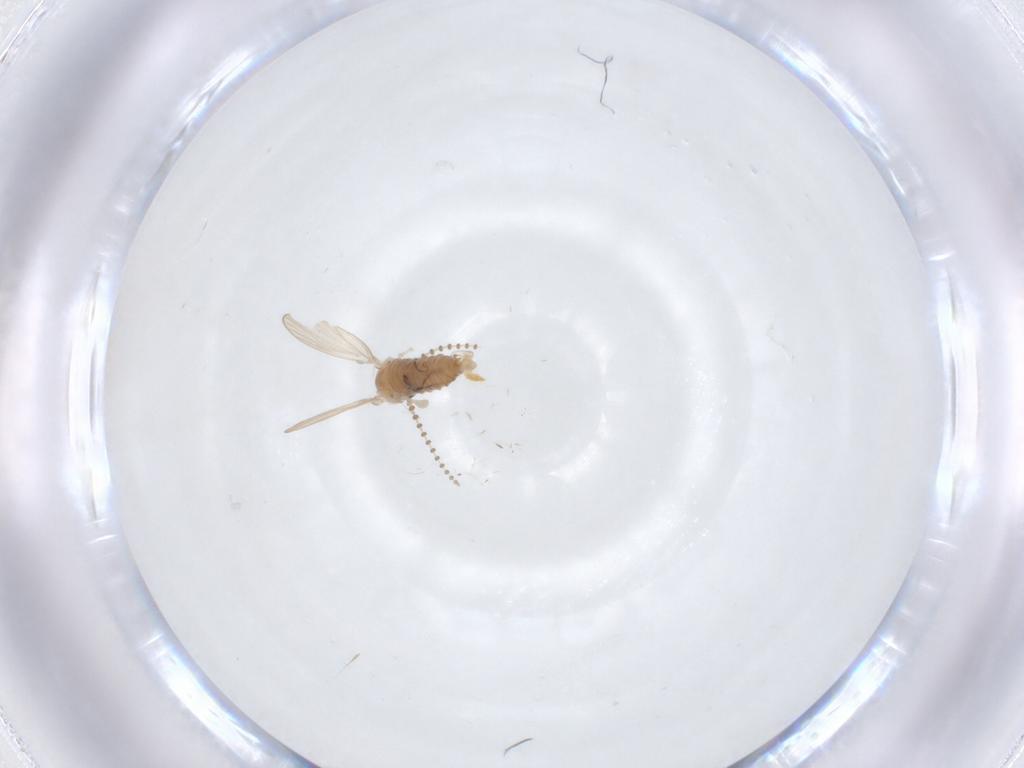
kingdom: Animalia
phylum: Arthropoda
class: Insecta
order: Diptera
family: Psychodidae
